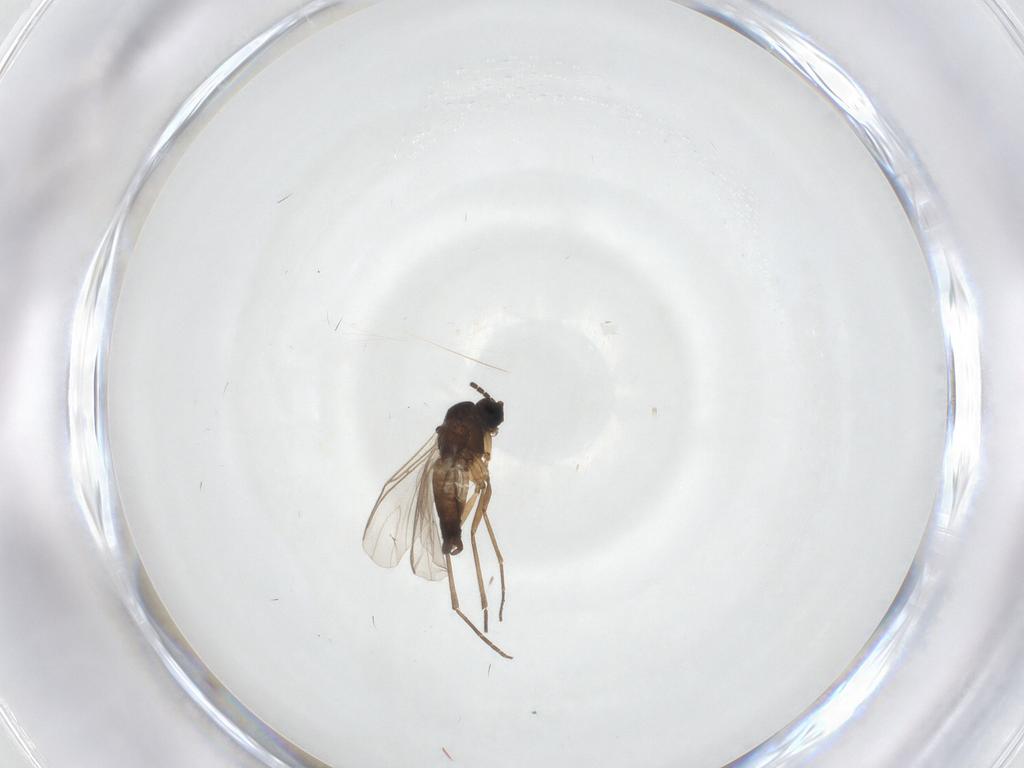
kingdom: Animalia
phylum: Arthropoda
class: Insecta
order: Diptera
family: Sciaridae
